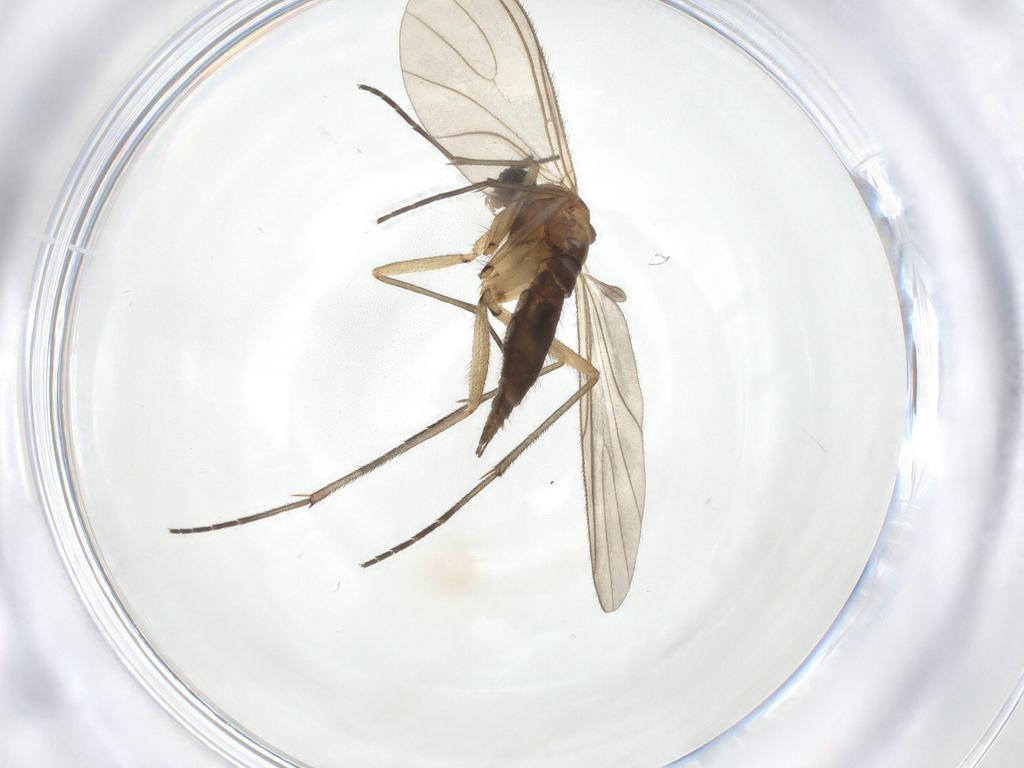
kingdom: Animalia
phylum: Arthropoda
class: Insecta
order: Diptera
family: Sciaridae
